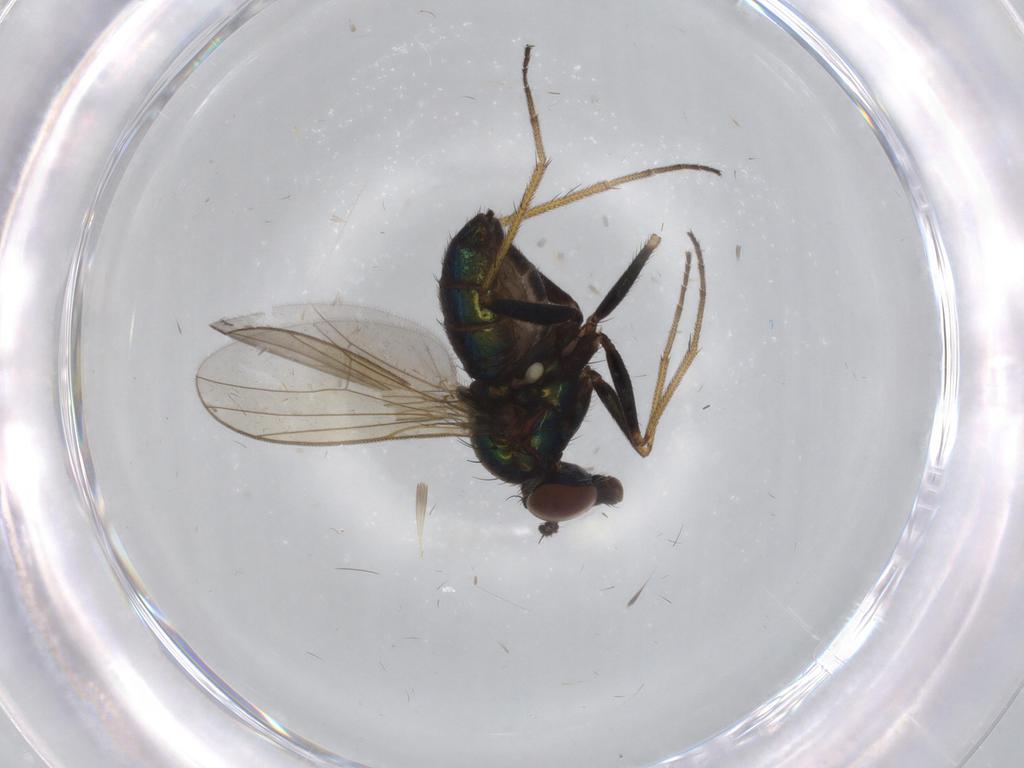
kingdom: Animalia
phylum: Arthropoda
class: Insecta
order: Diptera
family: Dolichopodidae
